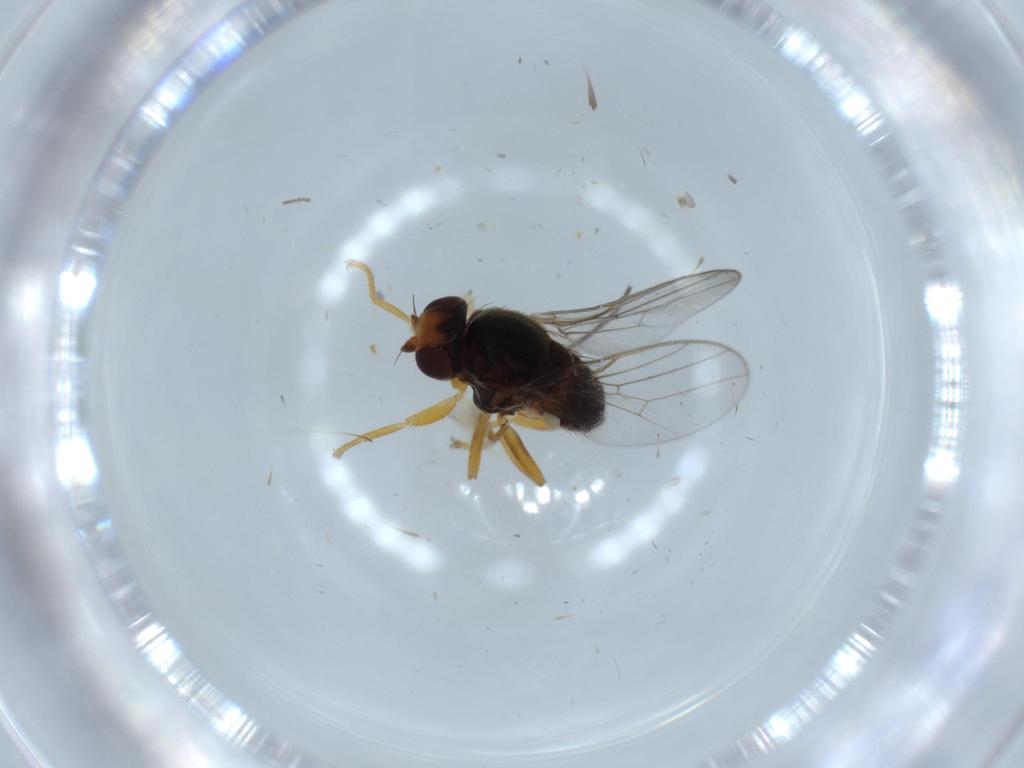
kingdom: Animalia
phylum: Arthropoda
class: Insecta
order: Diptera
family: Chloropidae
